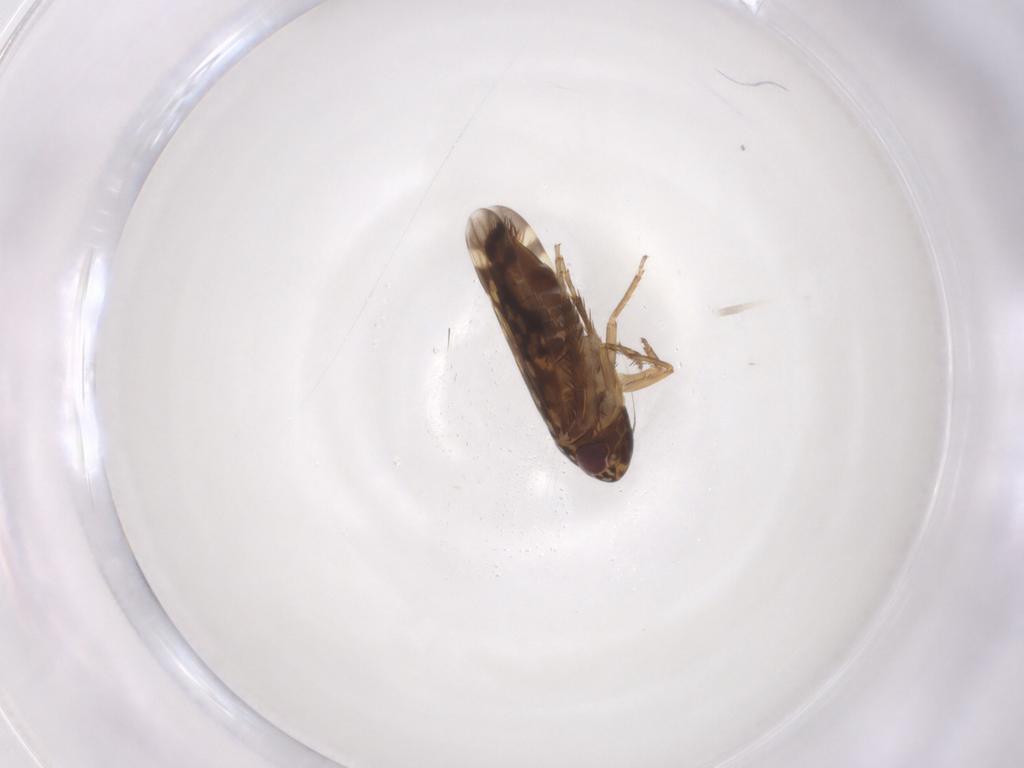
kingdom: Animalia
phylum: Arthropoda
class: Insecta
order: Hemiptera
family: Cicadellidae
